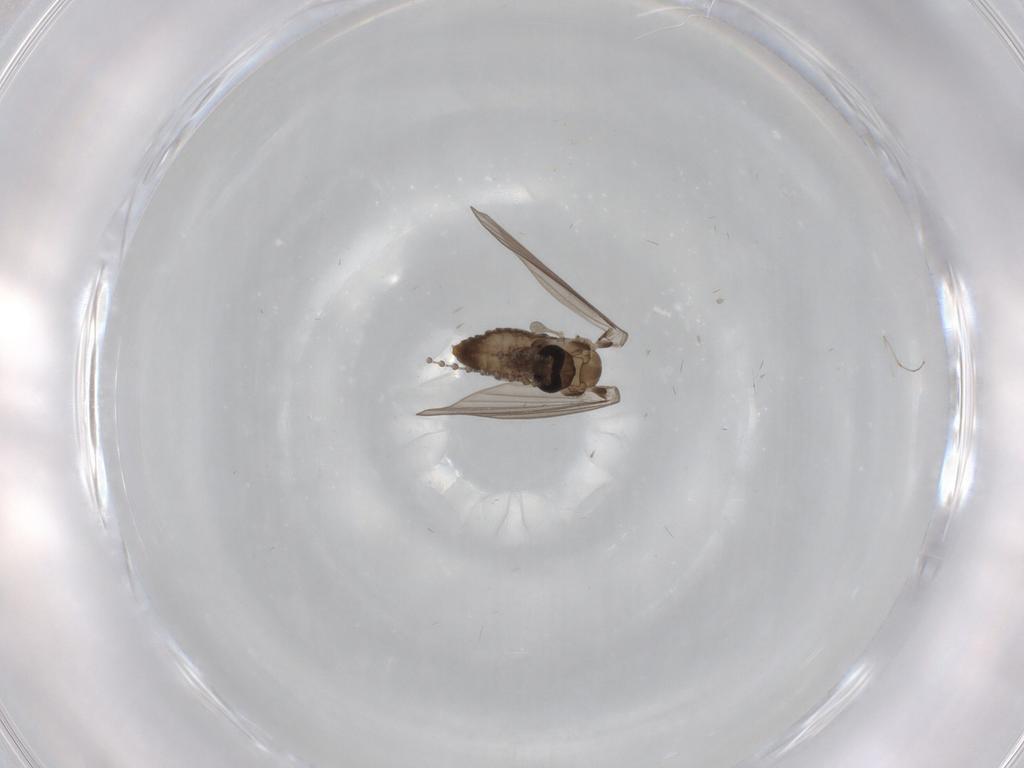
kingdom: Animalia
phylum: Arthropoda
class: Insecta
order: Diptera
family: Psychodidae
